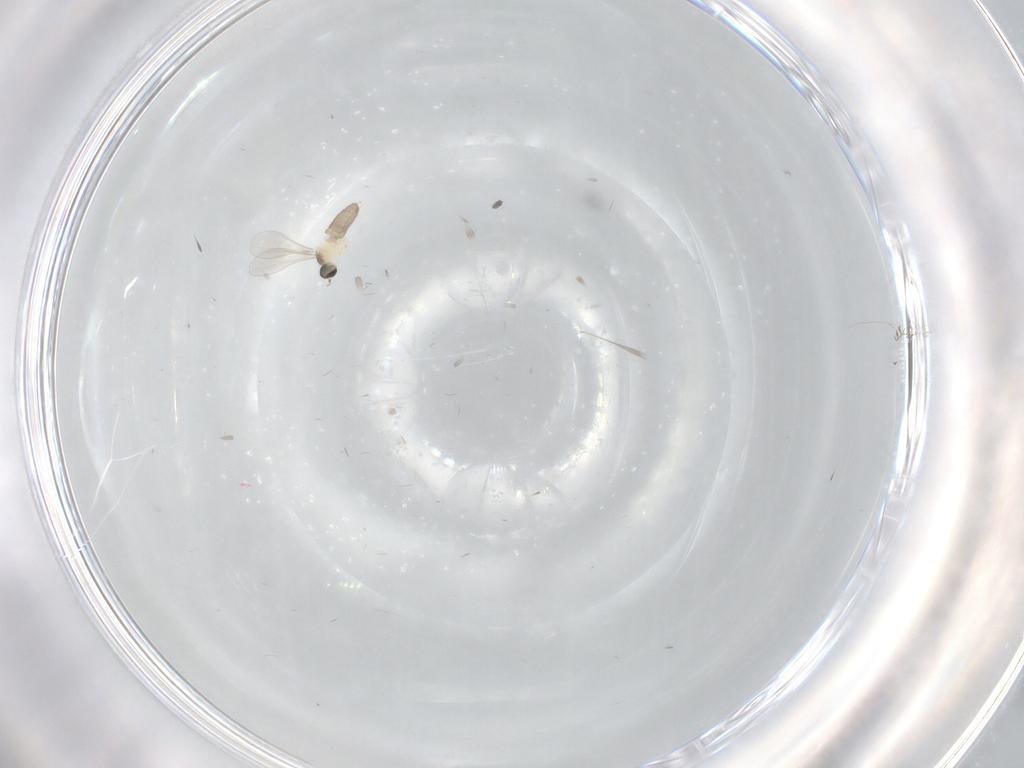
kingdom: Animalia
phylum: Arthropoda
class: Insecta
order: Diptera
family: Cecidomyiidae
